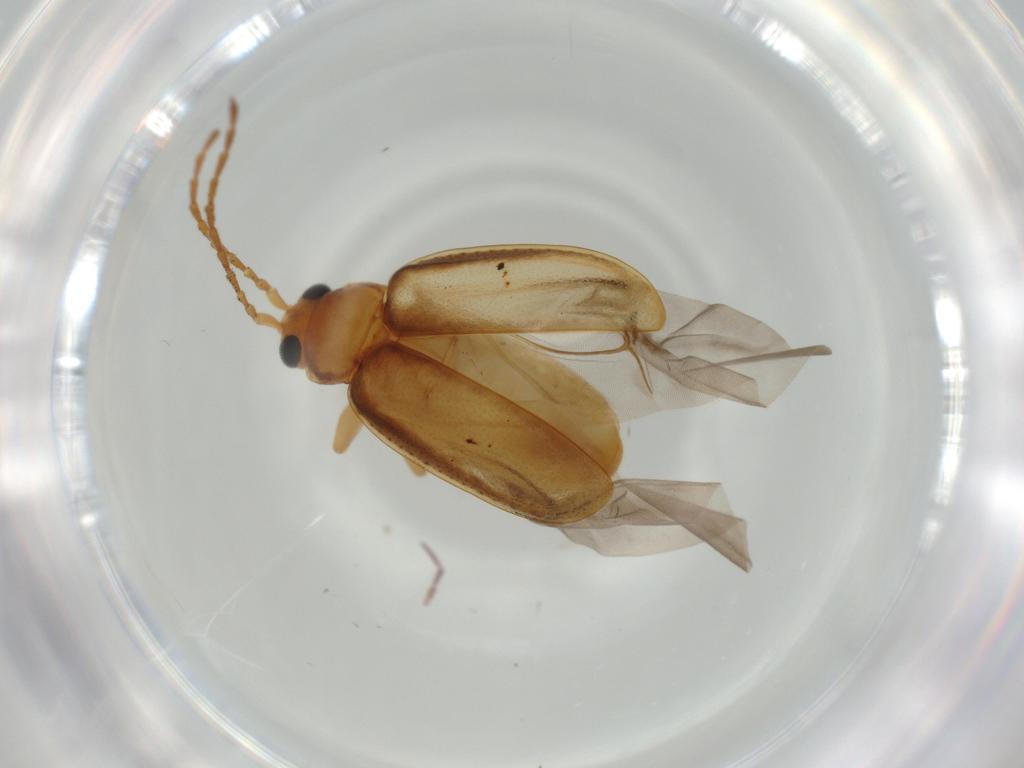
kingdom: Animalia
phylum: Arthropoda
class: Insecta
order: Coleoptera
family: Chrysomelidae
